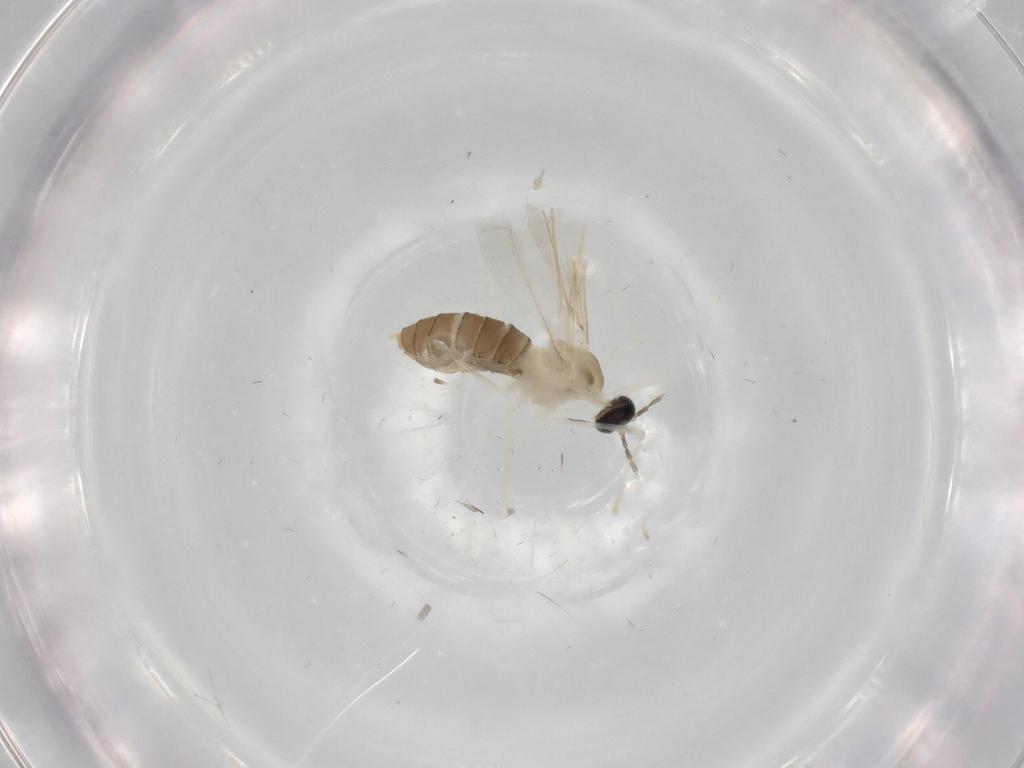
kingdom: Animalia
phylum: Arthropoda
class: Insecta
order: Diptera
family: Cecidomyiidae
